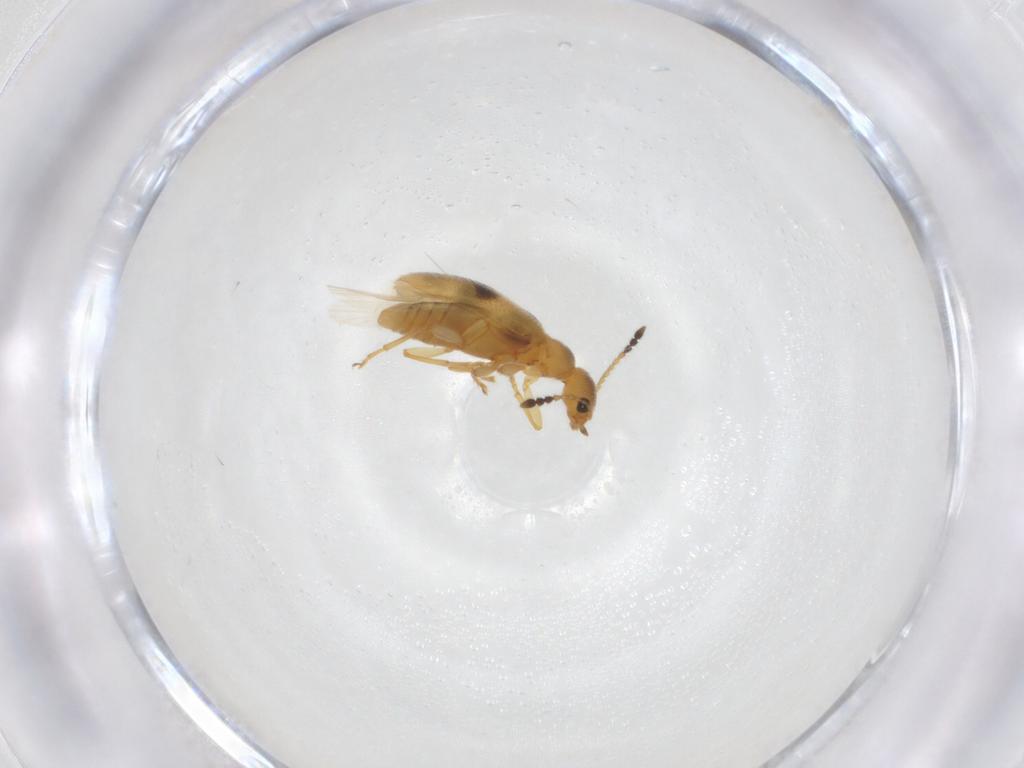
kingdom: Animalia
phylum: Arthropoda
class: Insecta
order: Coleoptera
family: Anthicidae
